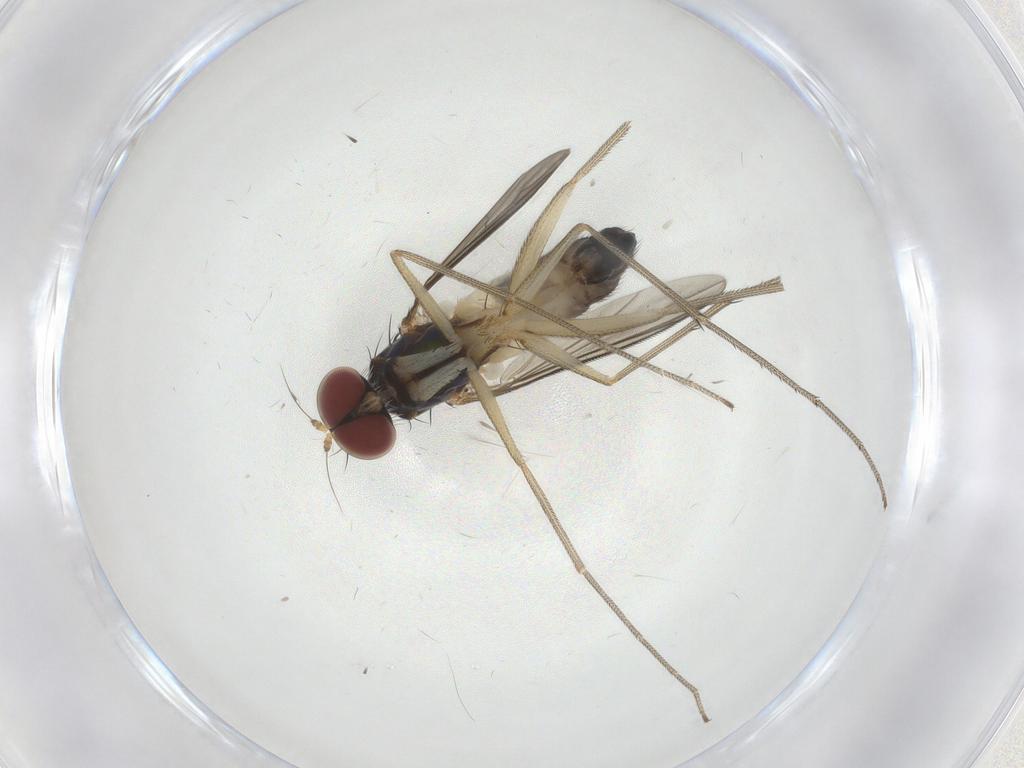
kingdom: Animalia
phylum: Arthropoda
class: Insecta
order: Diptera
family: Dolichopodidae
